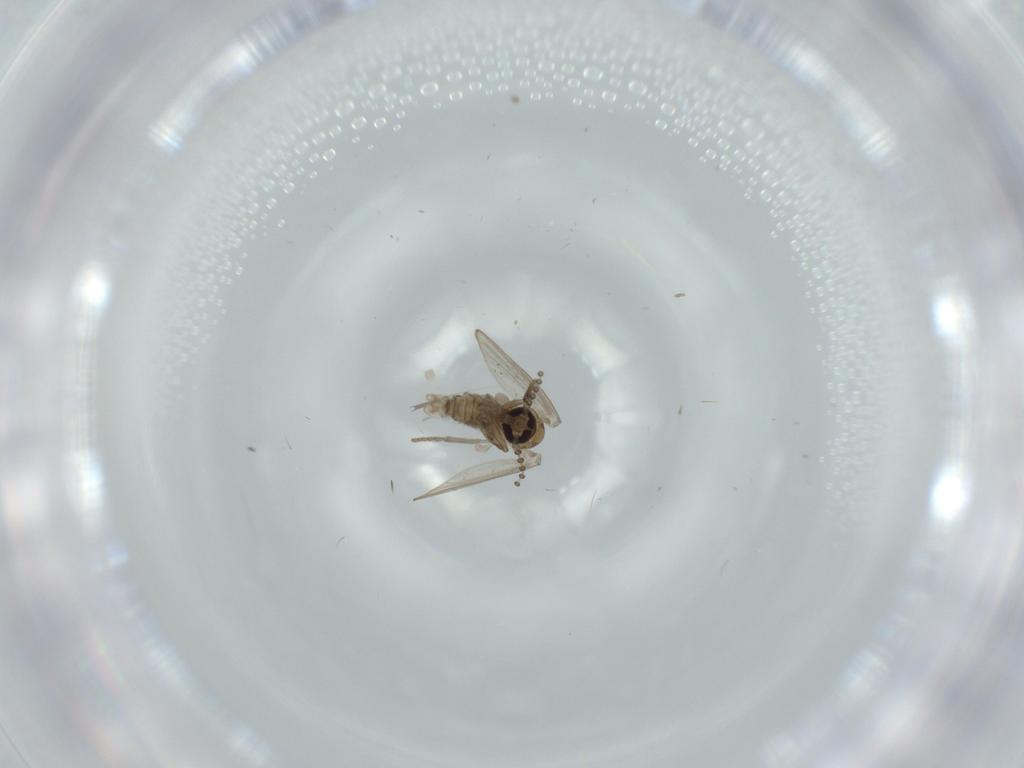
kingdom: Animalia
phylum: Arthropoda
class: Insecta
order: Diptera
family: Psychodidae
